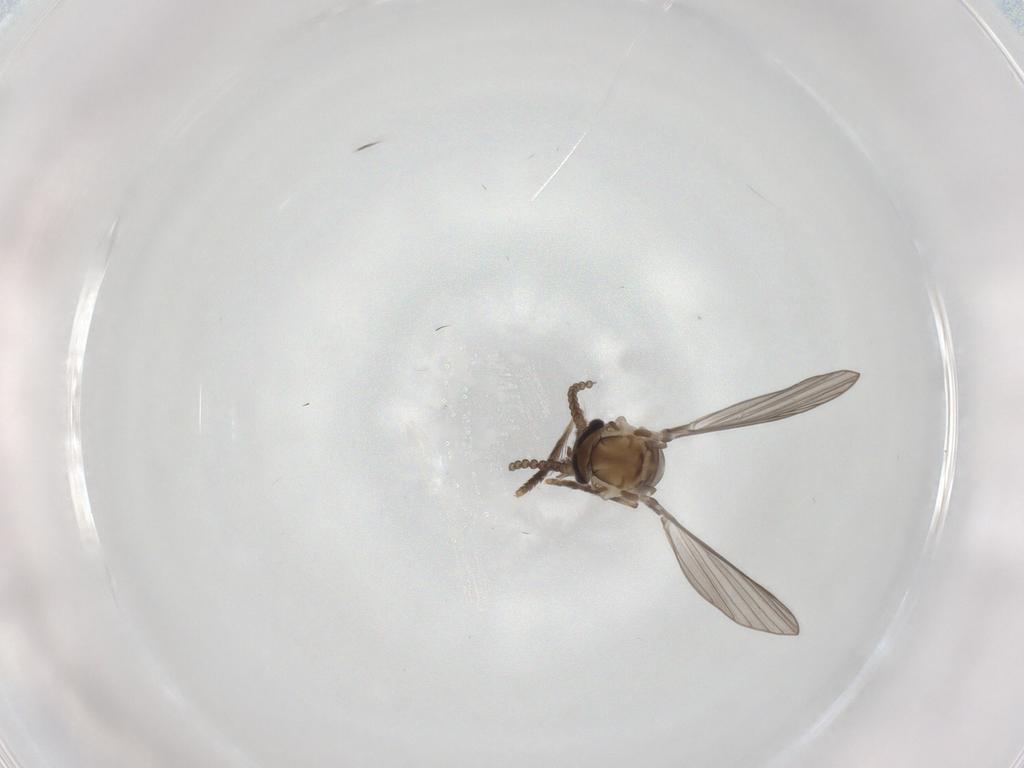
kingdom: Animalia
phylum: Arthropoda
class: Insecta
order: Diptera
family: Psychodidae
